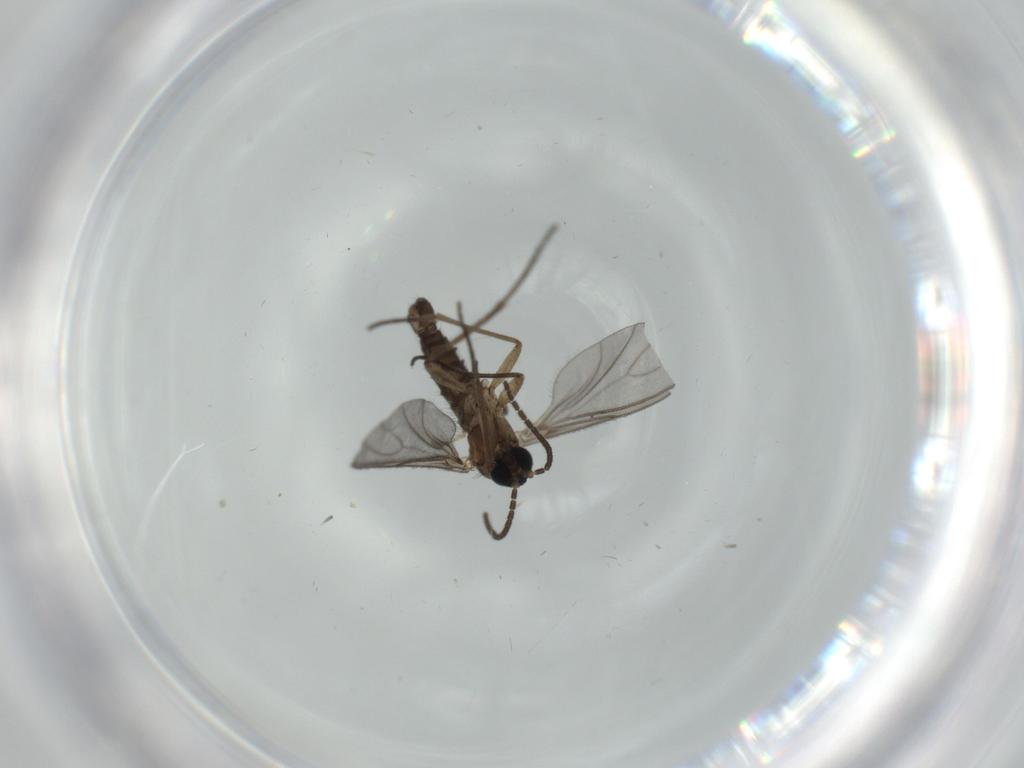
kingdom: Animalia
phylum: Arthropoda
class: Insecta
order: Diptera
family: Sciaridae
